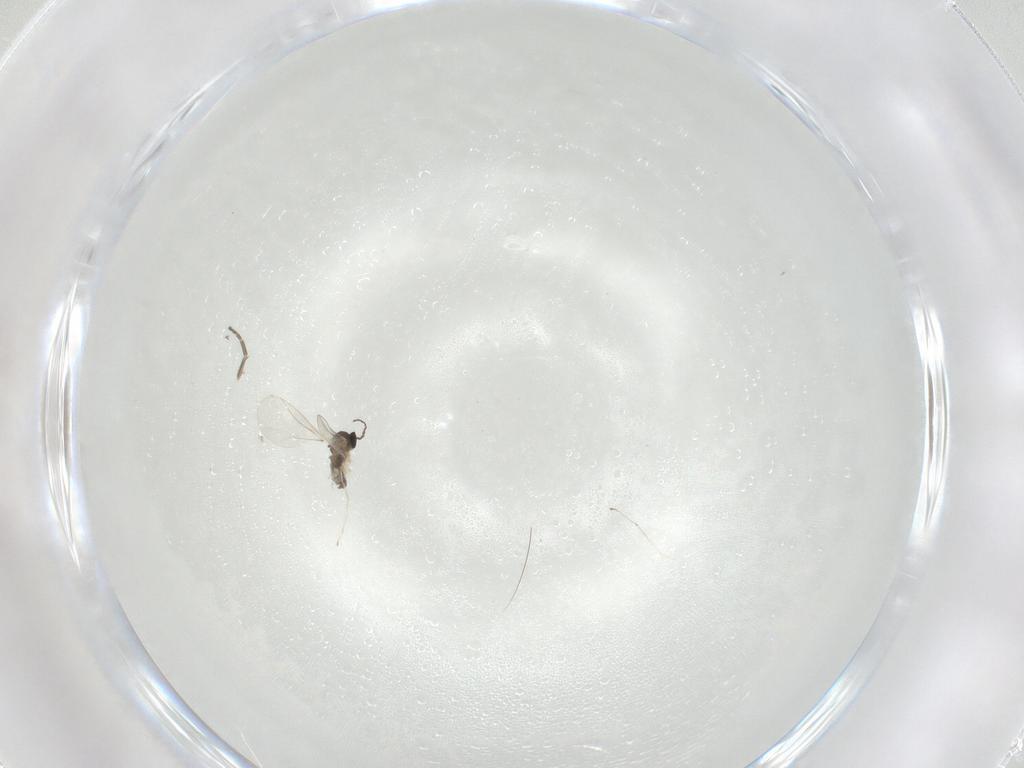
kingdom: Animalia
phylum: Arthropoda
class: Insecta
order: Diptera
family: Cecidomyiidae
